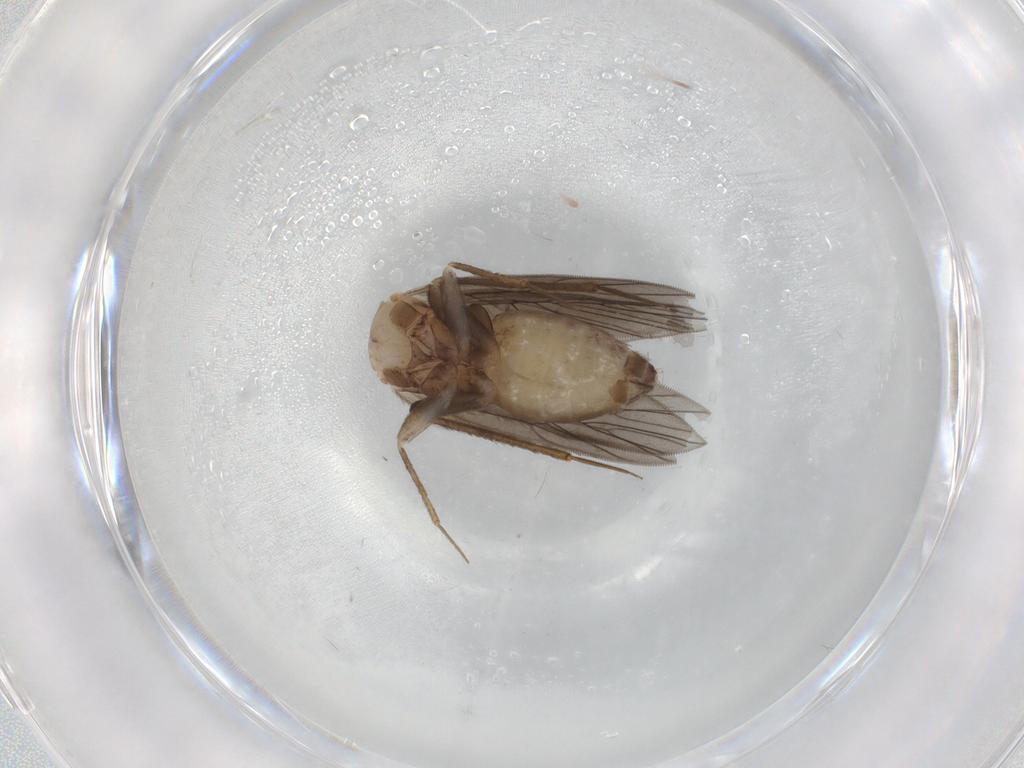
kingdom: Animalia
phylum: Arthropoda
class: Insecta
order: Psocodea
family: Lepidopsocidae
